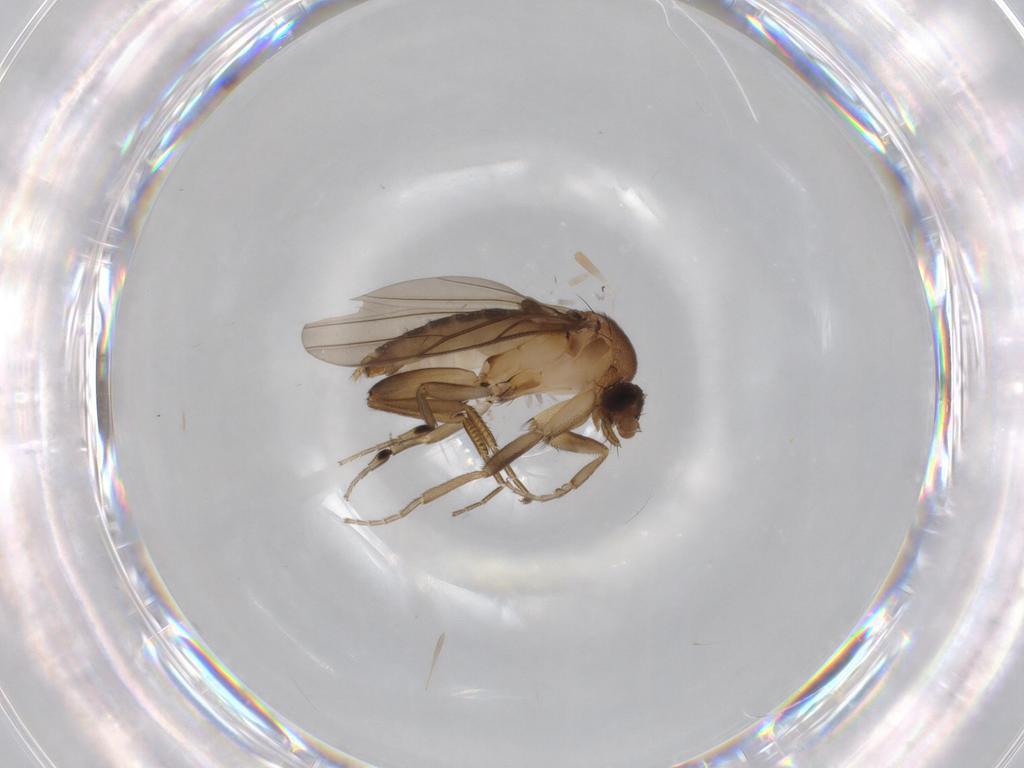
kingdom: Animalia
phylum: Arthropoda
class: Insecta
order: Diptera
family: Phoridae
